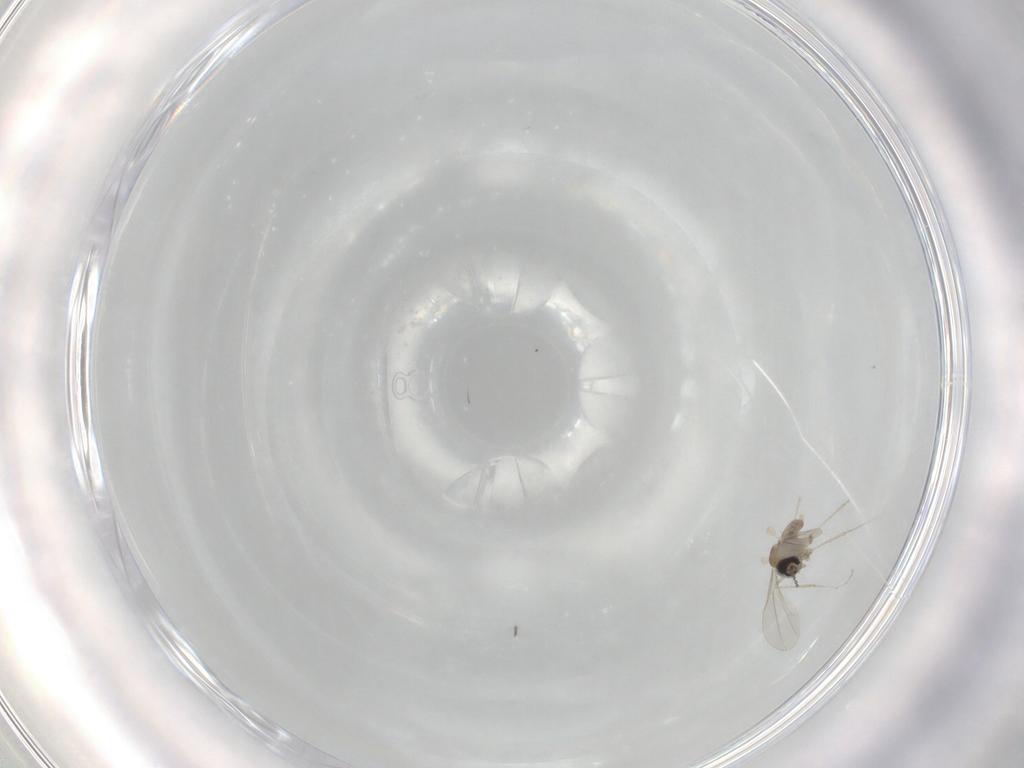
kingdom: Animalia
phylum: Arthropoda
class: Insecta
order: Diptera
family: Cecidomyiidae
